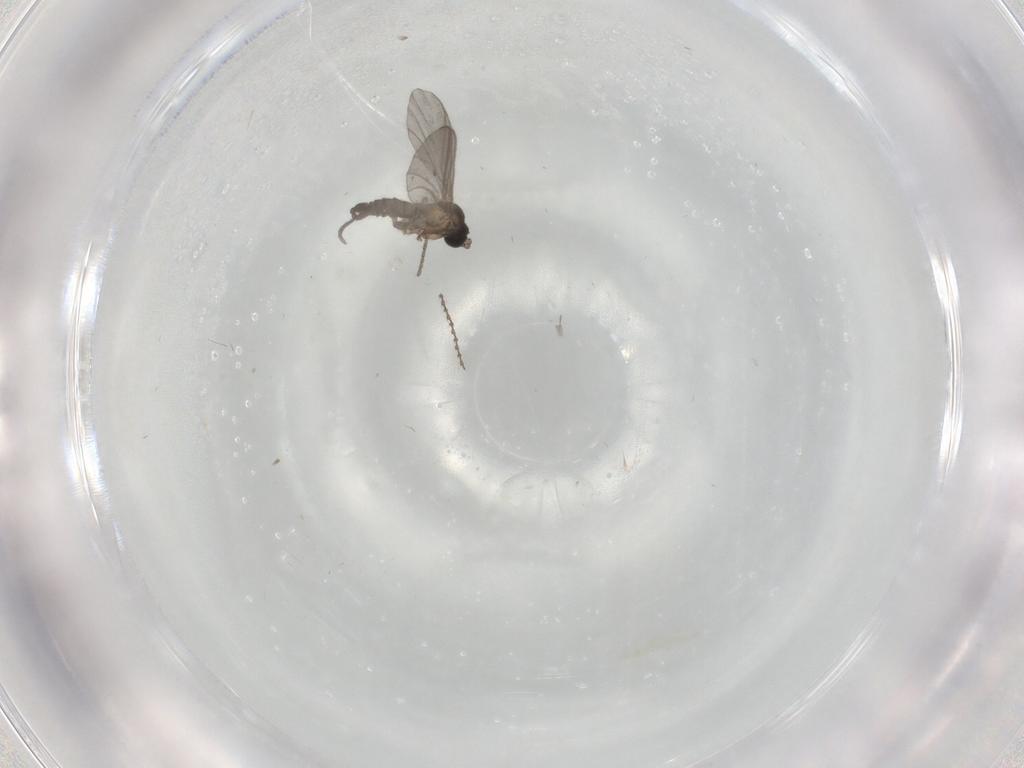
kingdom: Animalia
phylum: Arthropoda
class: Insecta
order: Diptera
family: Sciaridae
